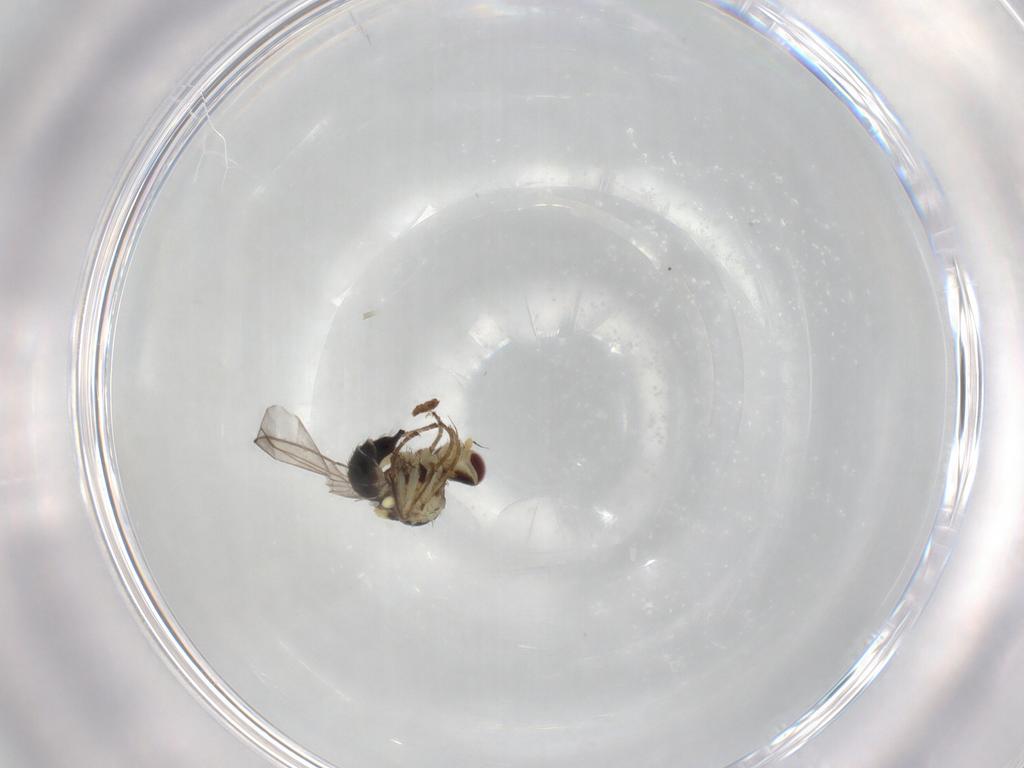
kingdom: Animalia
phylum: Arthropoda
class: Insecta
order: Diptera
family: Agromyzidae
